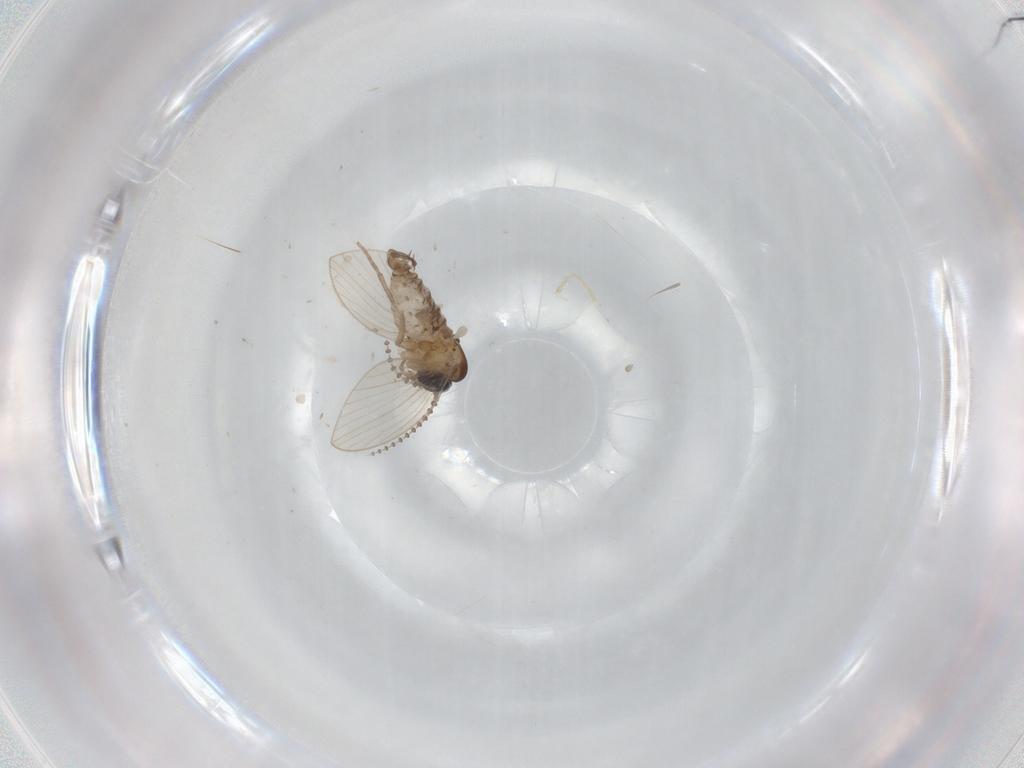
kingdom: Animalia
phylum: Arthropoda
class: Insecta
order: Diptera
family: Psychodidae
